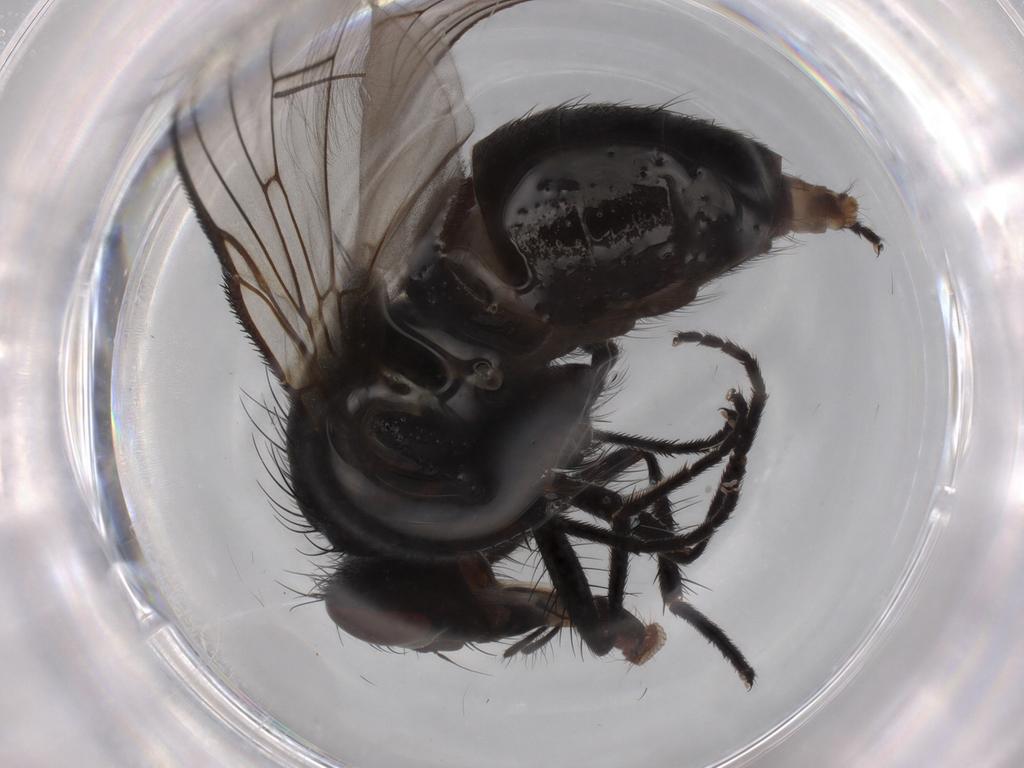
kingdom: Animalia
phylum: Arthropoda
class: Insecta
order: Diptera
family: Muscidae
